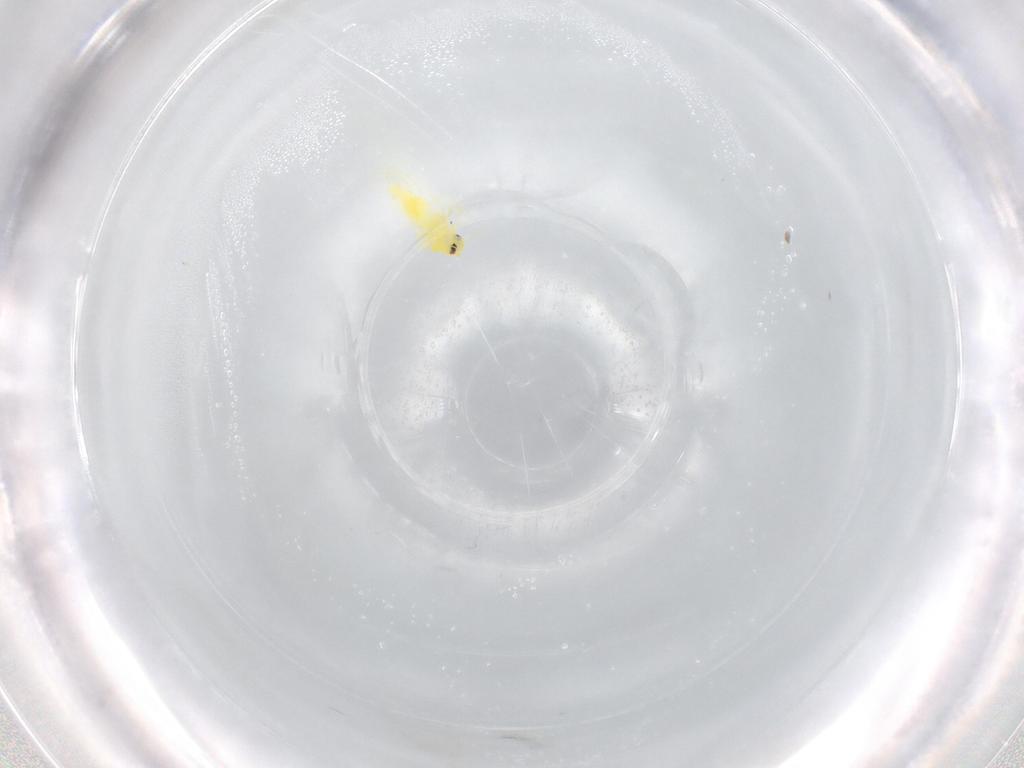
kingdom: Animalia
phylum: Arthropoda
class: Insecta
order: Hemiptera
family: Aleyrodidae
